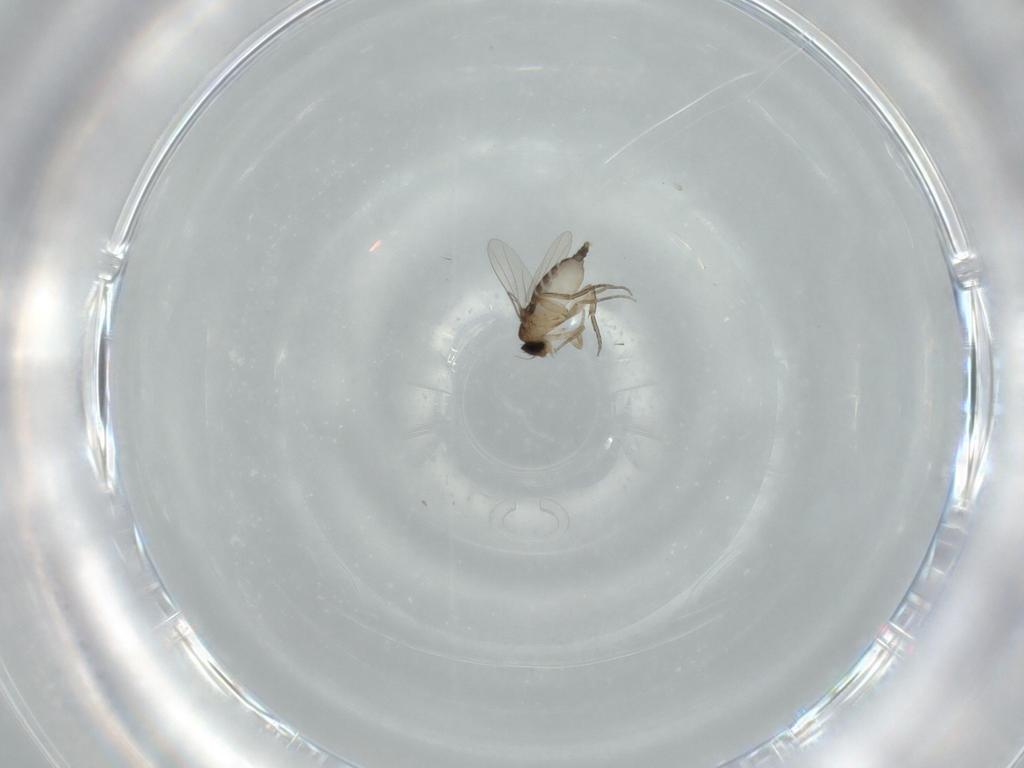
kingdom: Animalia
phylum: Arthropoda
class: Insecta
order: Diptera
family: Phoridae
